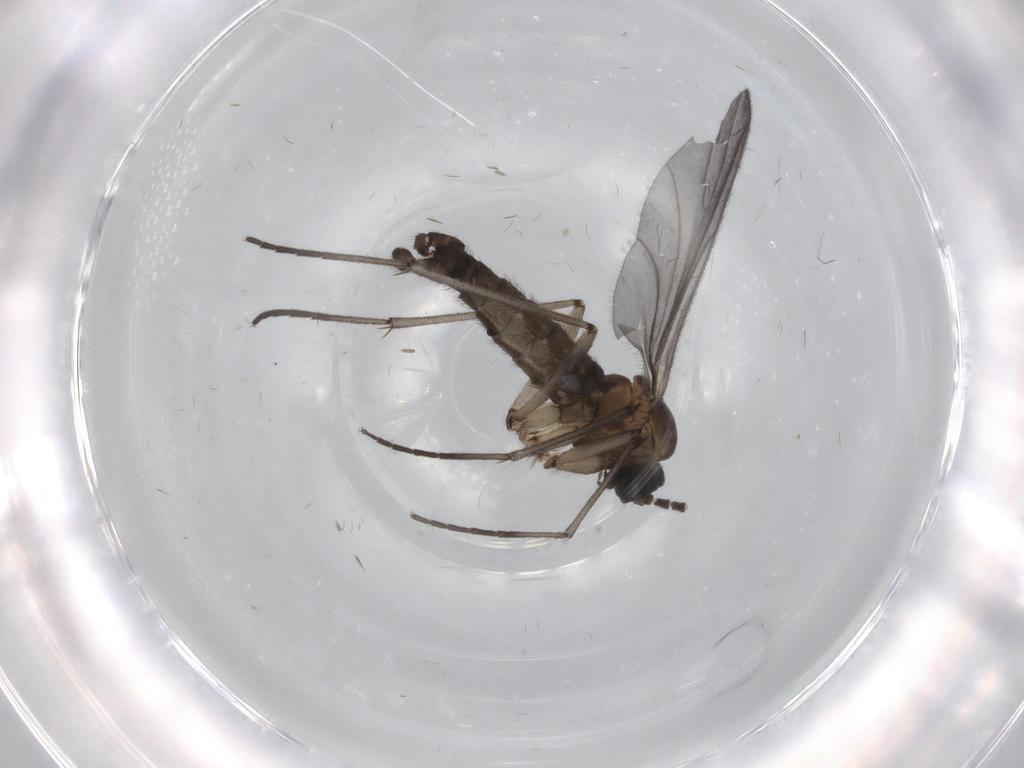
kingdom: Animalia
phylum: Arthropoda
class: Insecta
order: Diptera
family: Sciaridae
